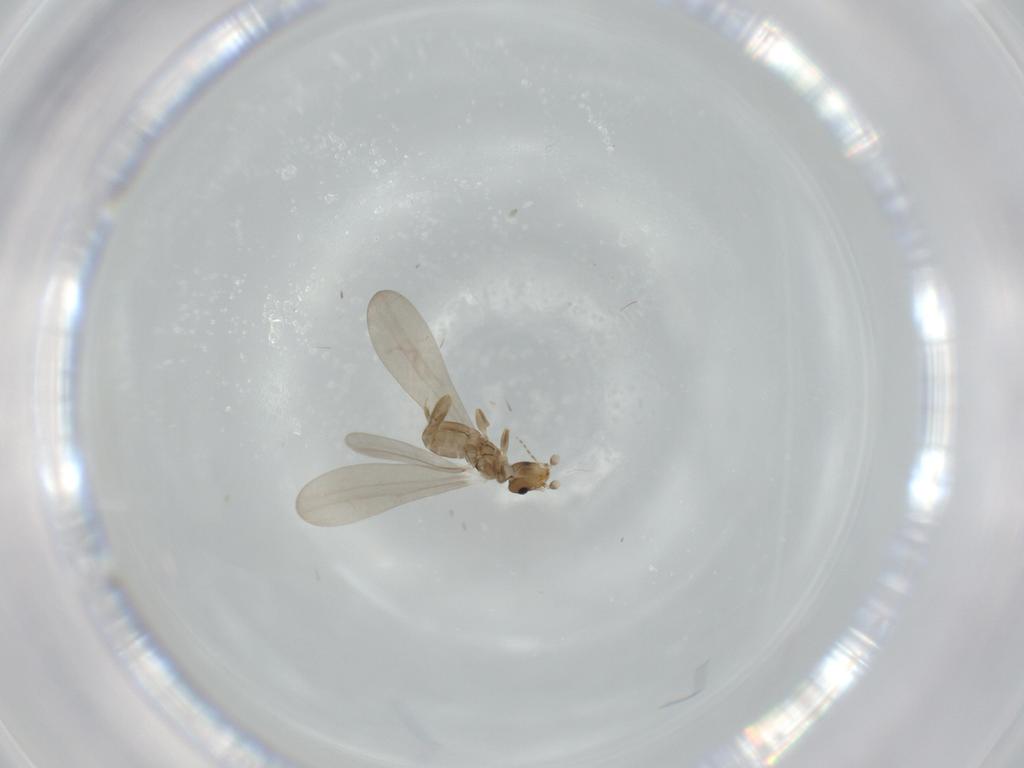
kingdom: Animalia
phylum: Arthropoda
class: Insecta
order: Psocodea
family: Liposcelididae
